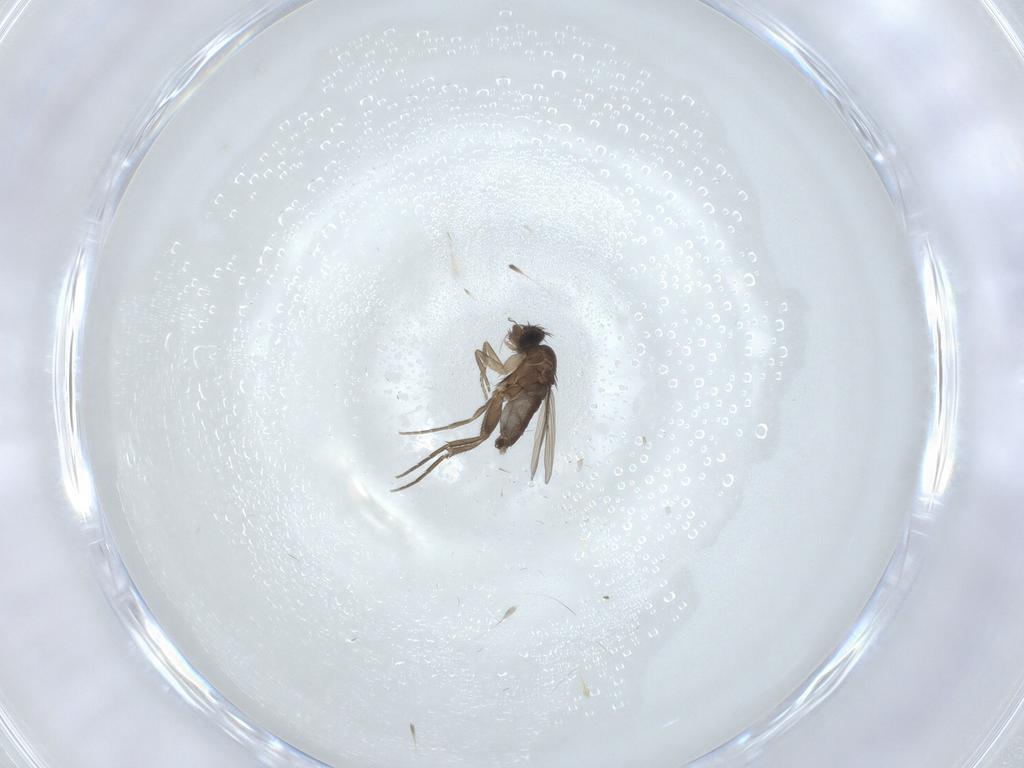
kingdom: Animalia
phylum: Arthropoda
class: Insecta
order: Diptera
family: Phoridae
